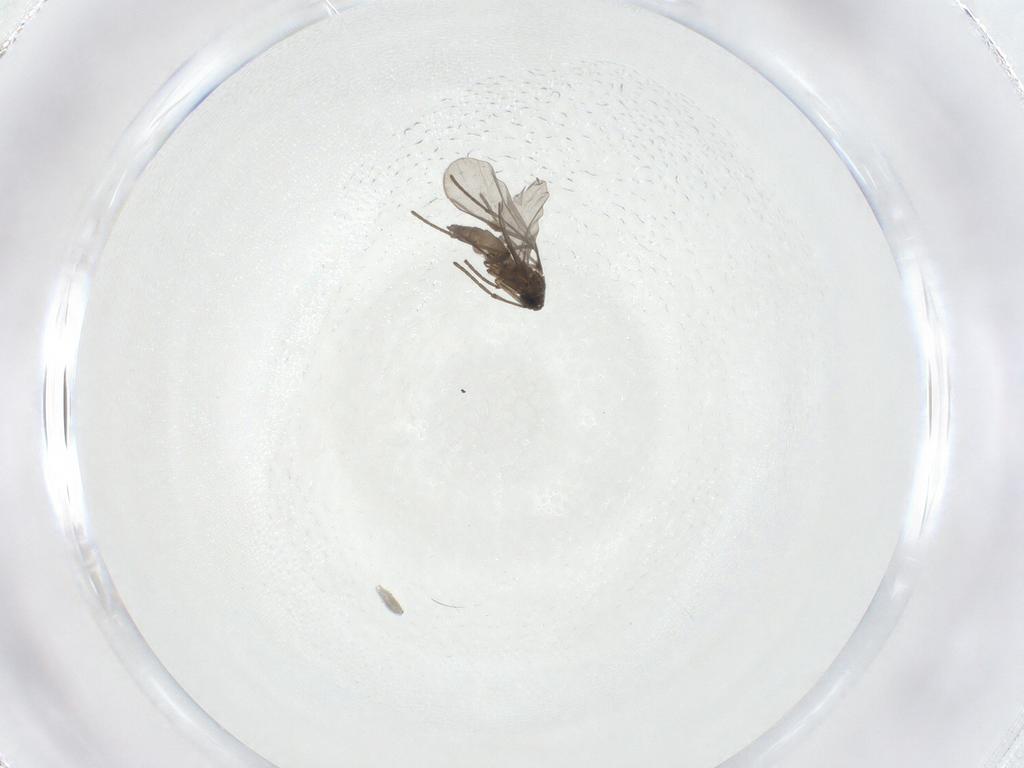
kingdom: Animalia
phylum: Arthropoda
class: Insecta
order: Diptera
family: Sciaridae
